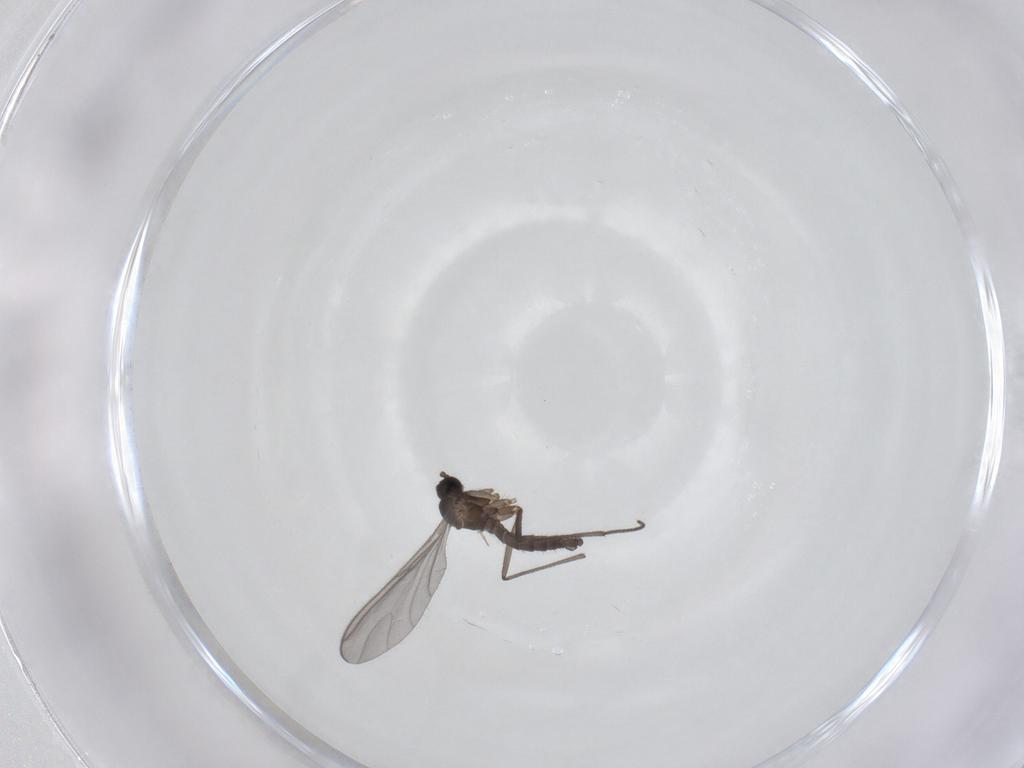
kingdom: Animalia
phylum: Arthropoda
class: Insecta
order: Diptera
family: Sciaridae
